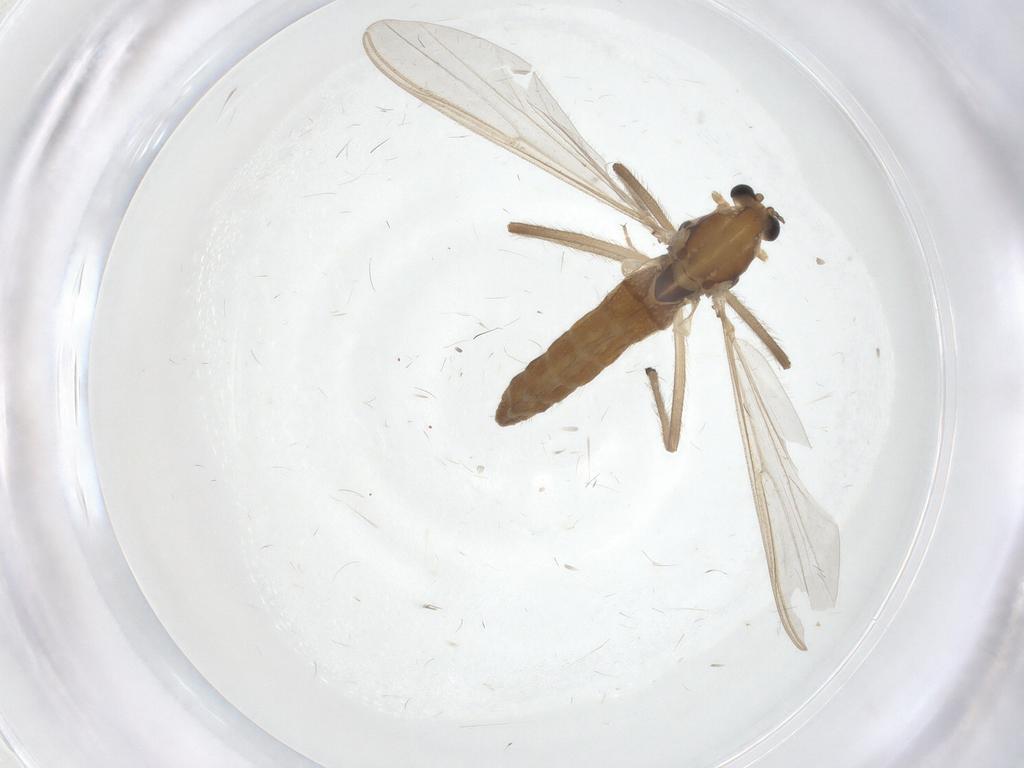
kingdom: Animalia
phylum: Arthropoda
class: Insecta
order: Diptera
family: Chironomidae
